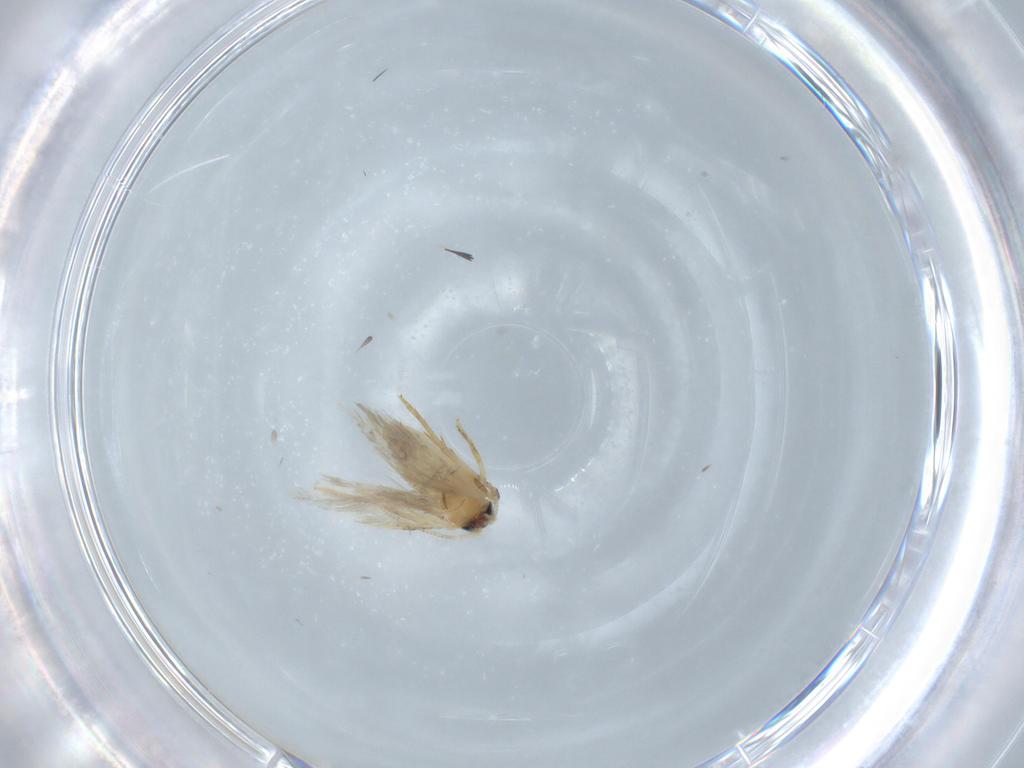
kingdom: Animalia
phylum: Arthropoda
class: Insecta
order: Lepidoptera
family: Nepticulidae
